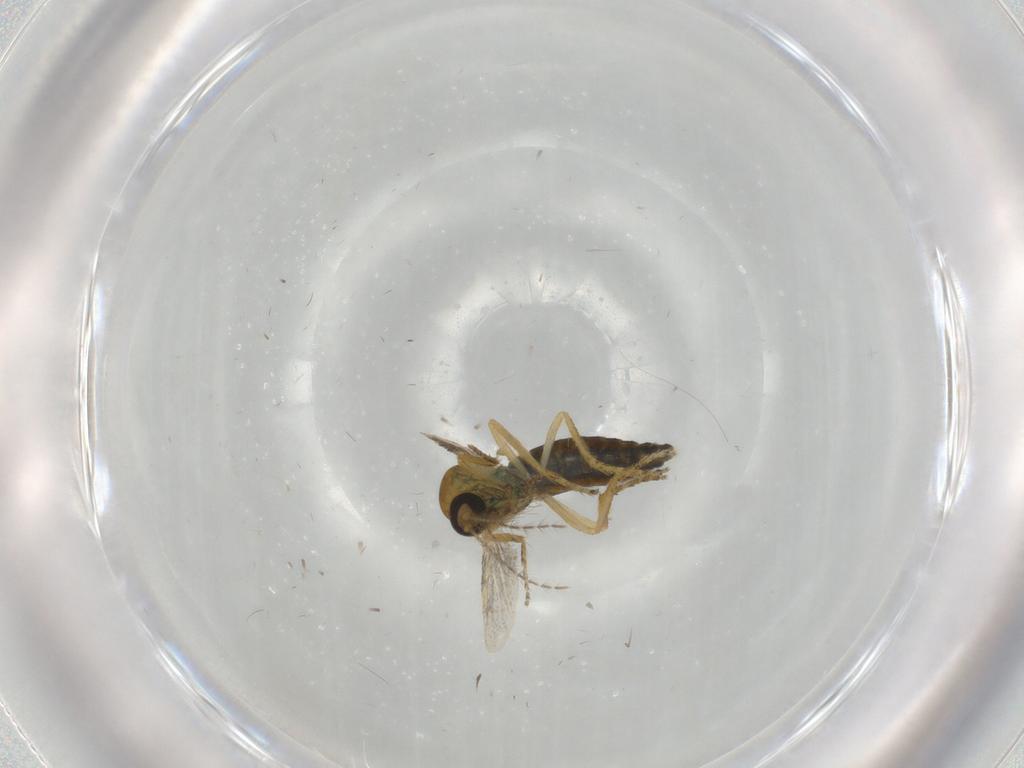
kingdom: Animalia
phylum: Arthropoda
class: Insecta
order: Diptera
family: Ceratopogonidae
